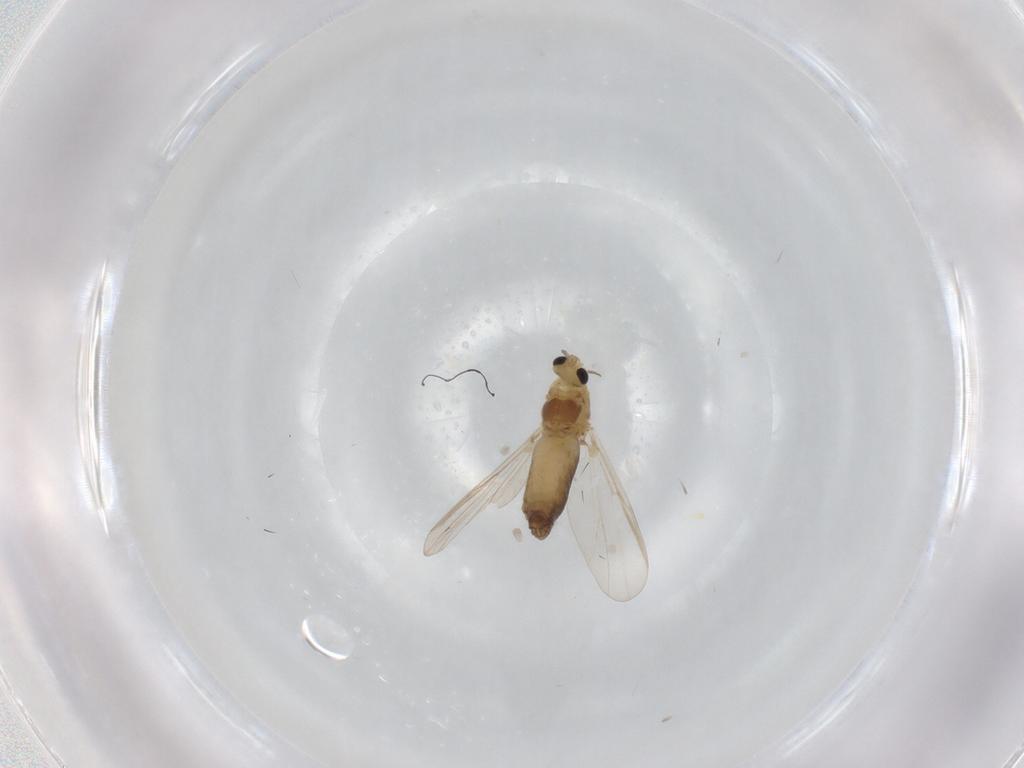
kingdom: Animalia
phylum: Arthropoda
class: Insecta
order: Diptera
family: Chironomidae
